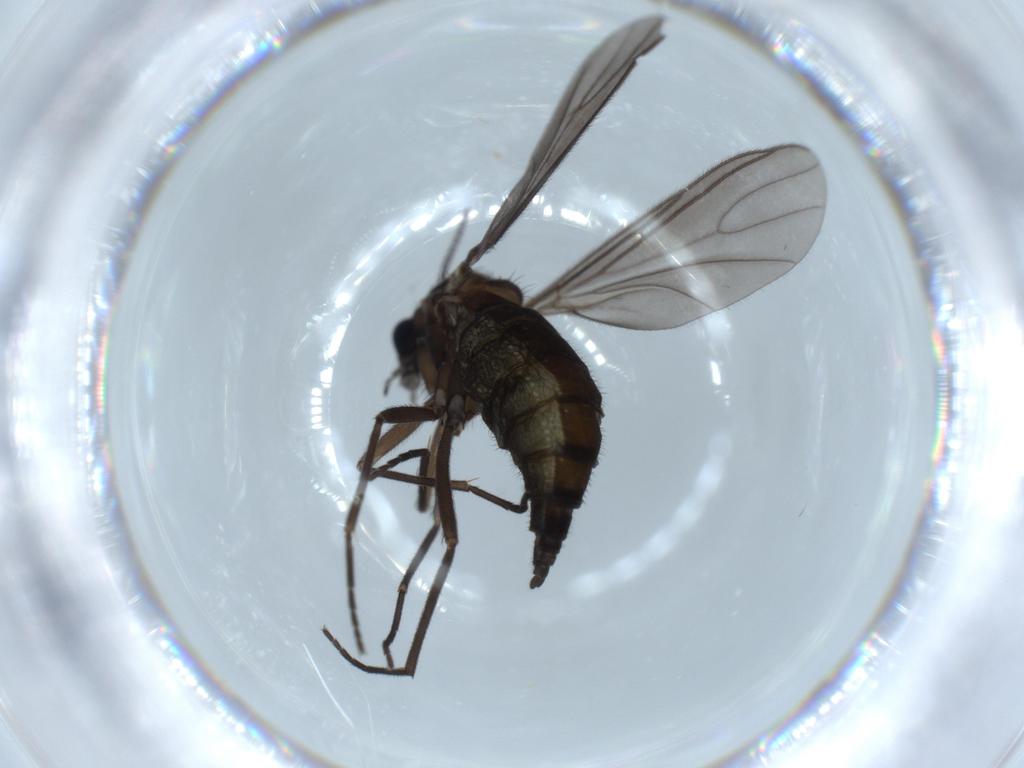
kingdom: Animalia
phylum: Arthropoda
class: Insecta
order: Diptera
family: Sciaridae
